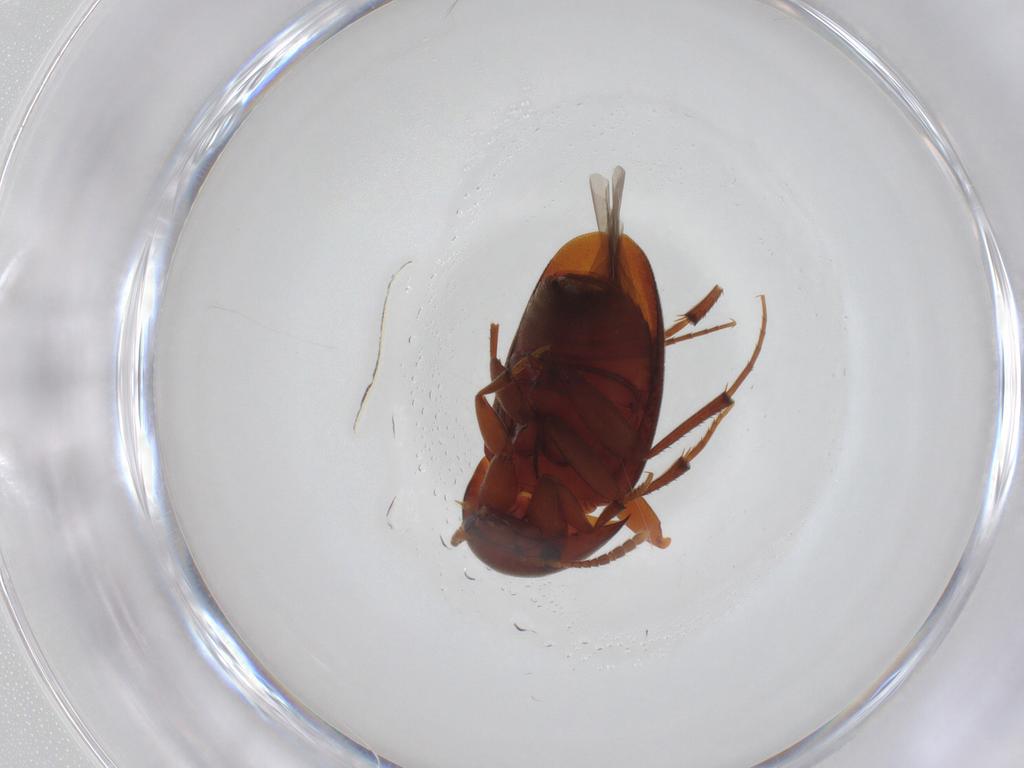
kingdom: Animalia
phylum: Arthropoda
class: Insecta
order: Coleoptera
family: Leiodidae
